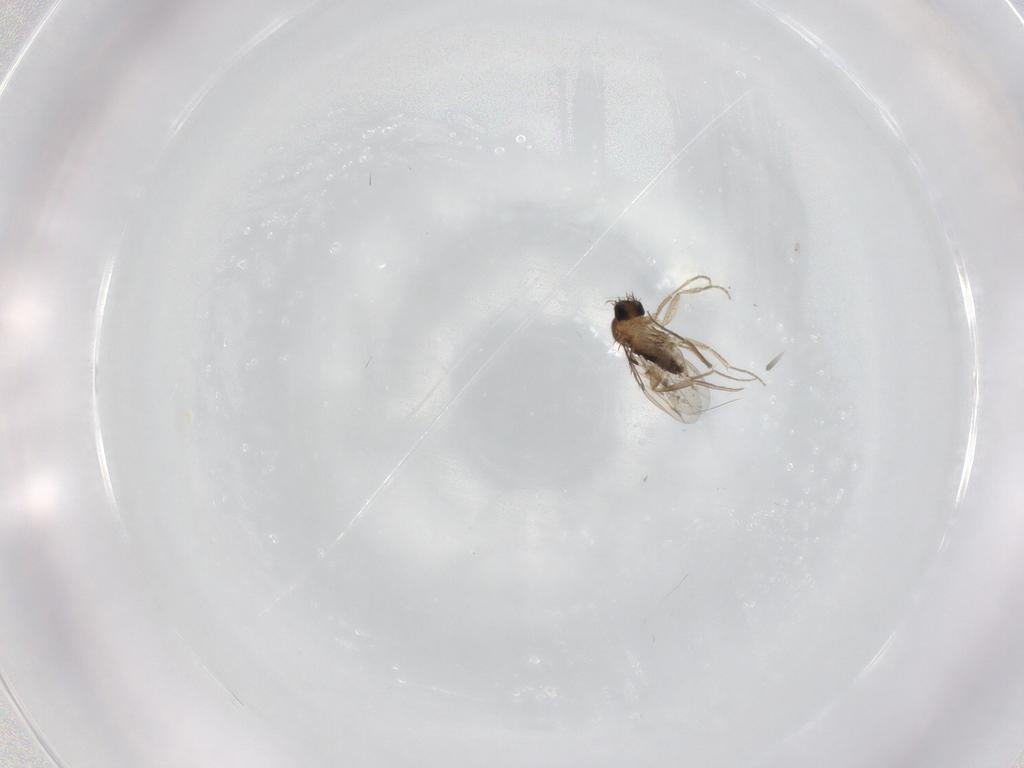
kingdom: Animalia
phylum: Arthropoda
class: Insecta
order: Diptera
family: Phoridae
